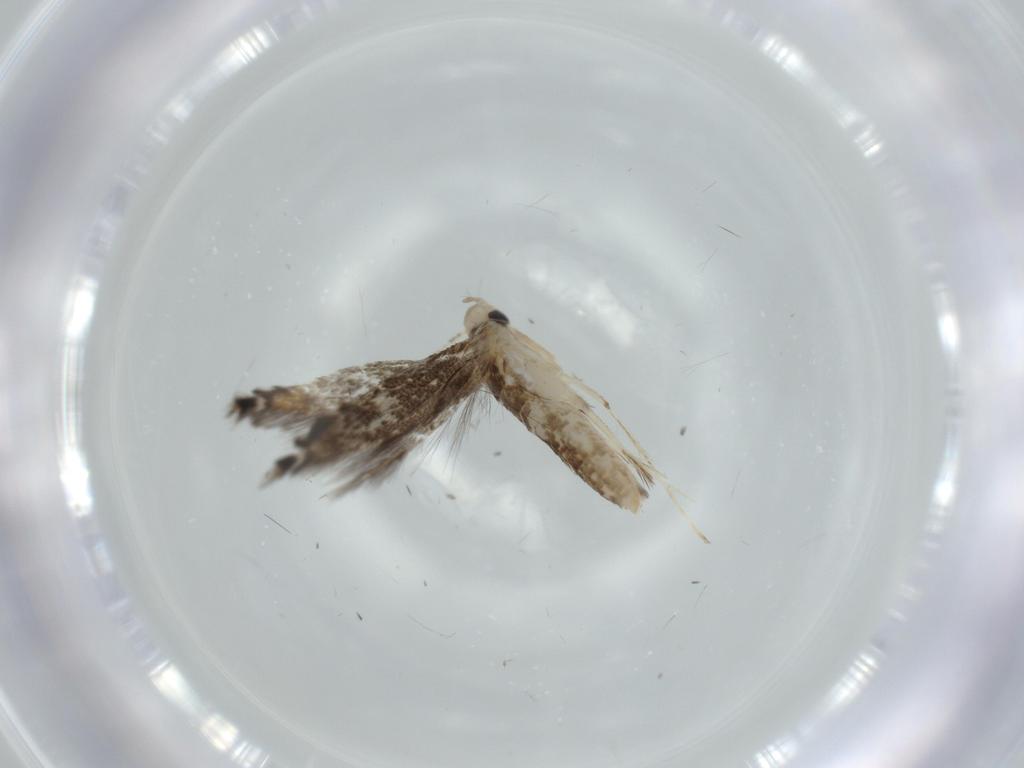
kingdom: Animalia
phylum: Arthropoda
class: Insecta
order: Lepidoptera
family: Gracillariidae
